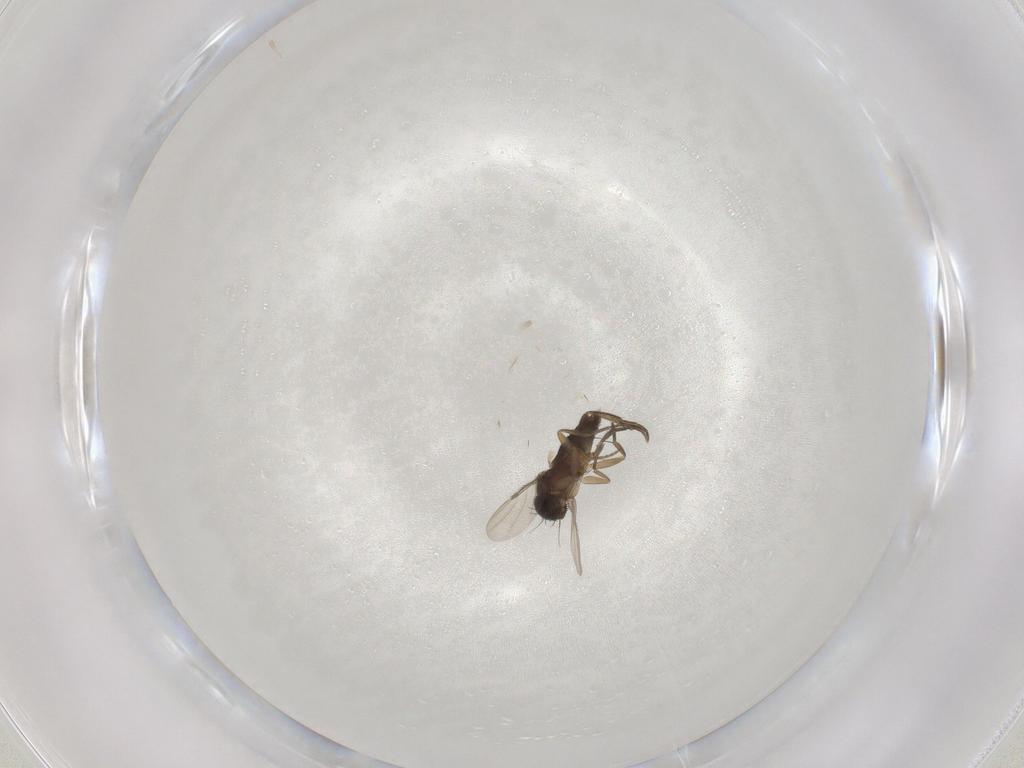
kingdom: Animalia
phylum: Arthropoda
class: Insecta
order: Diptera
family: Phoridae
